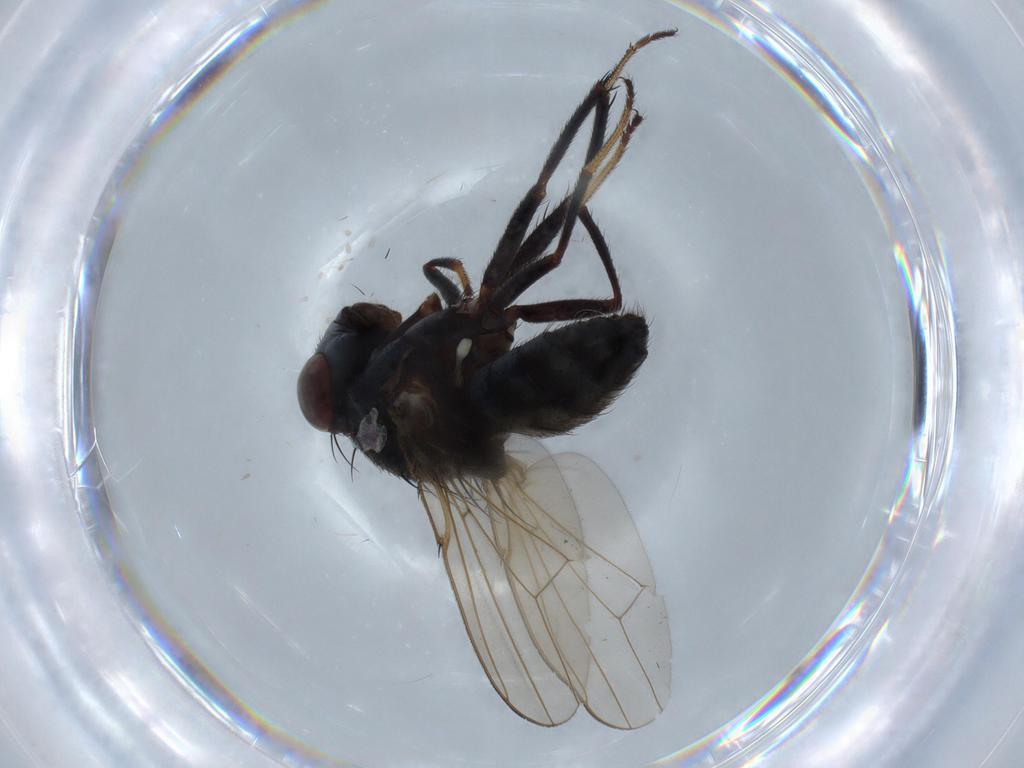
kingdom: Animalia
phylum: Arthropoda
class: Insecta
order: Diptera
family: Ephydridae
